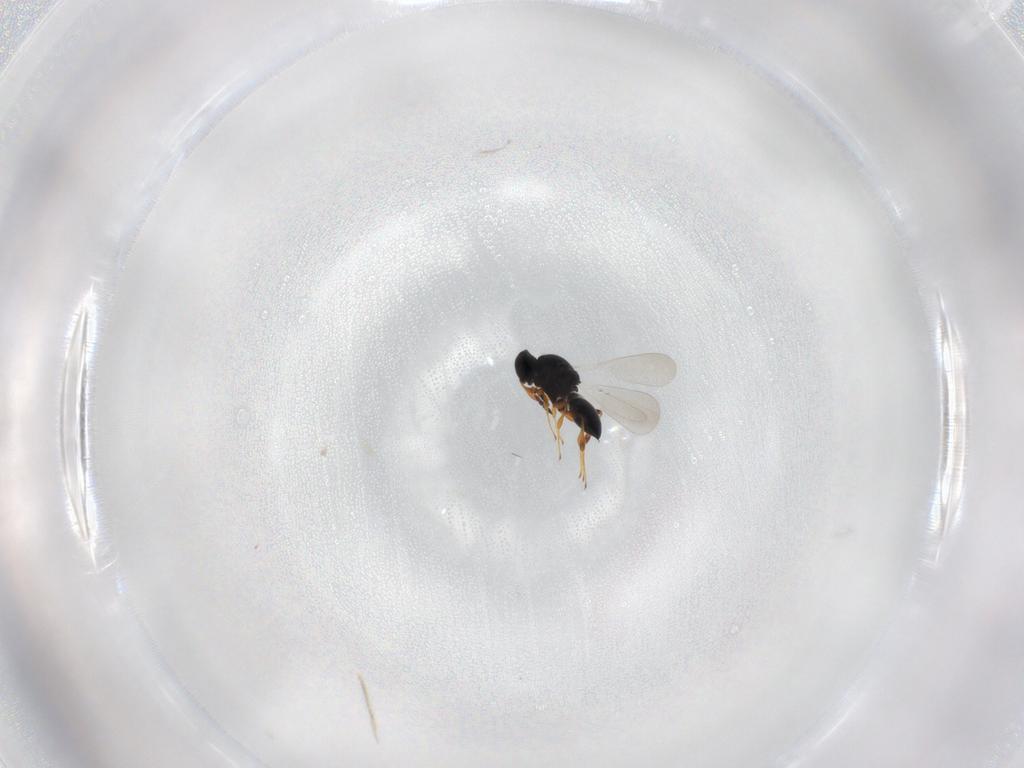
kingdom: Animalia
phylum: Arthropoda
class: Insecta
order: Hymenoptera
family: Platygastridae
